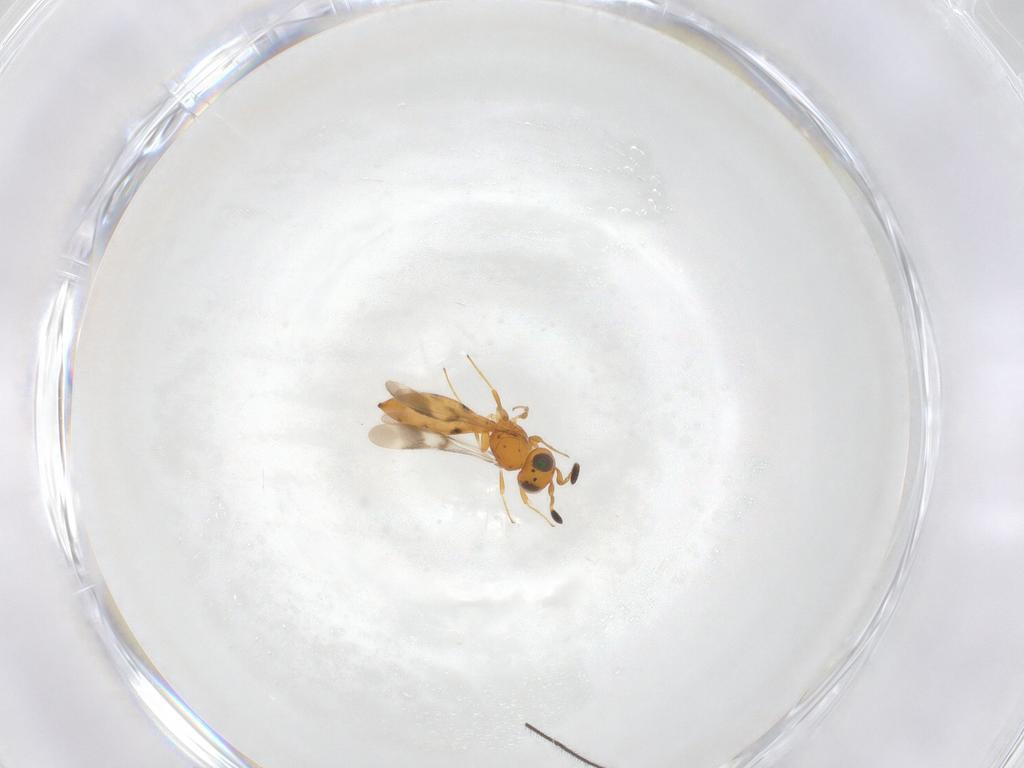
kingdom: Animalia
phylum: Arthropoda
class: Insecta
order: Hymenoptera
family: Scelionidae
